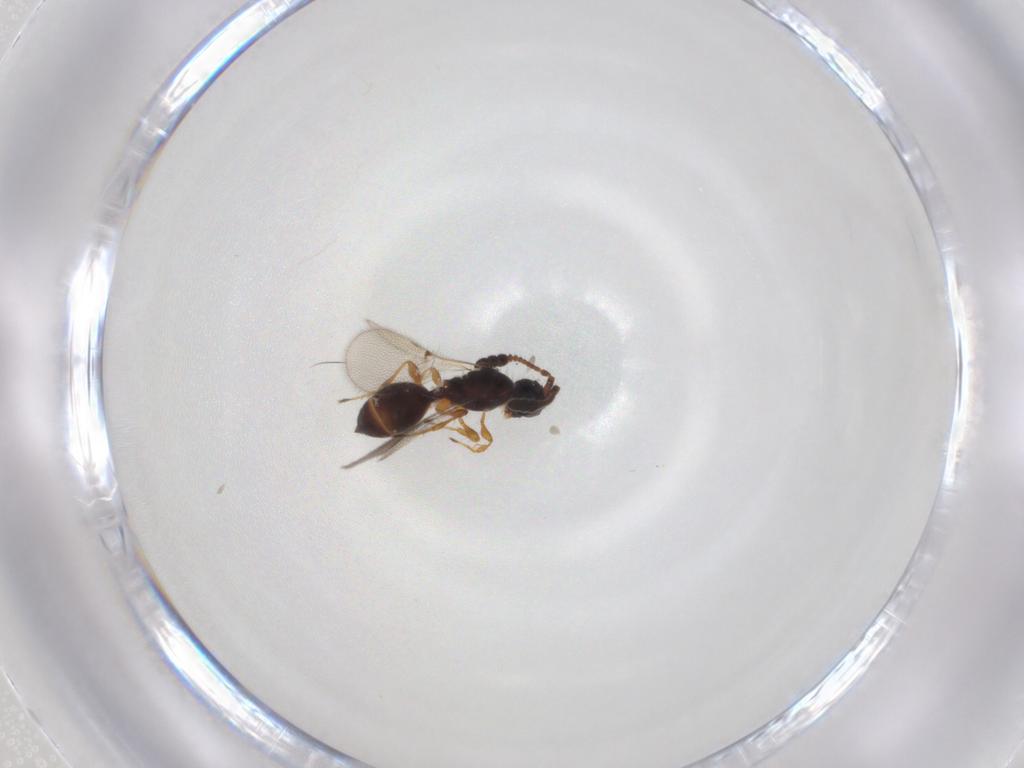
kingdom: Animalia
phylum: Arthropoda
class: Insecta
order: Hymenoptera
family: Diapriidae
